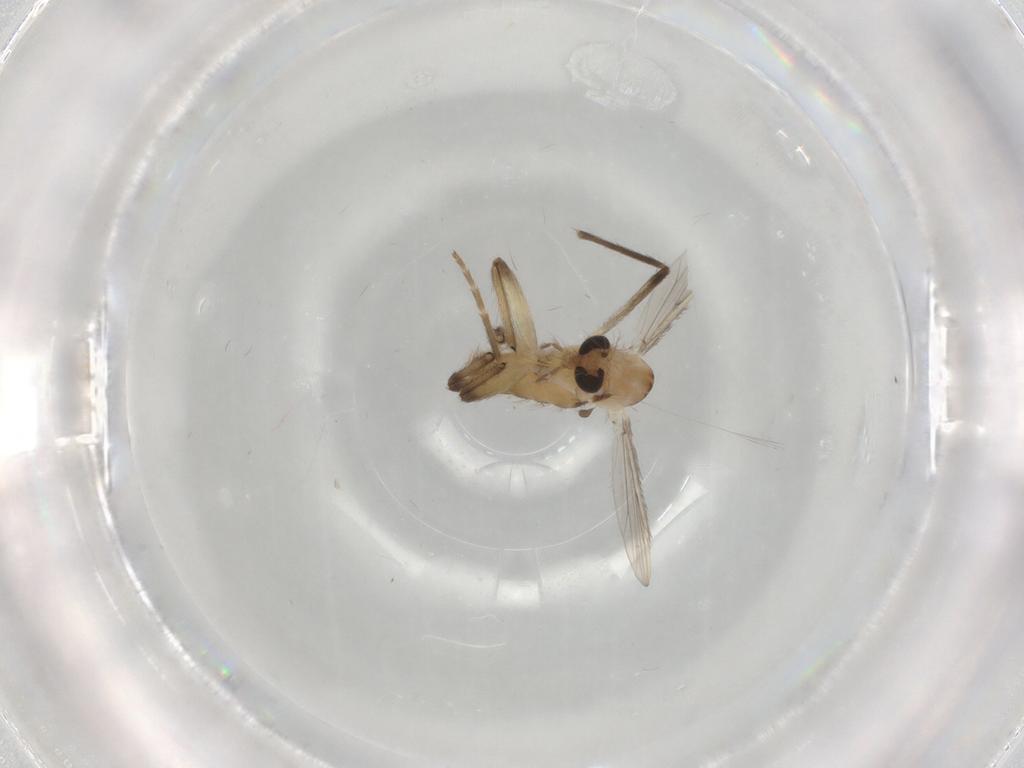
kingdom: Animalia
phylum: Arthropoda
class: Insecta
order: Diptera
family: Chironomidae
